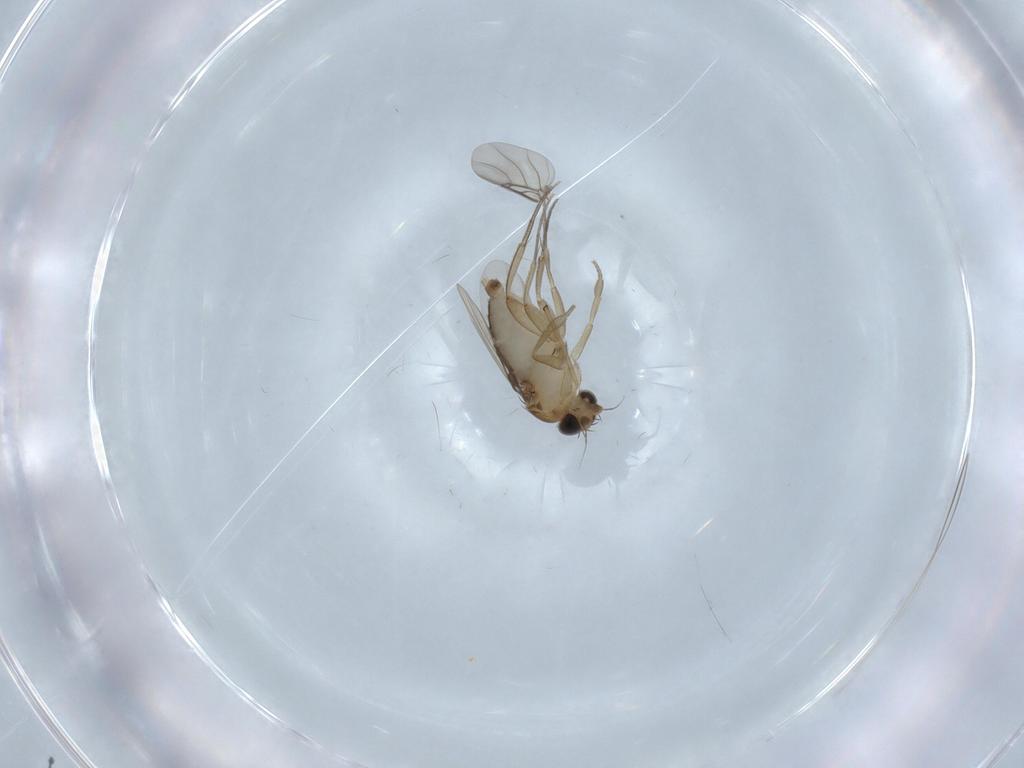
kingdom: Animalia
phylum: Arthropoda
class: Insecta
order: Diptera
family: Phoridae
